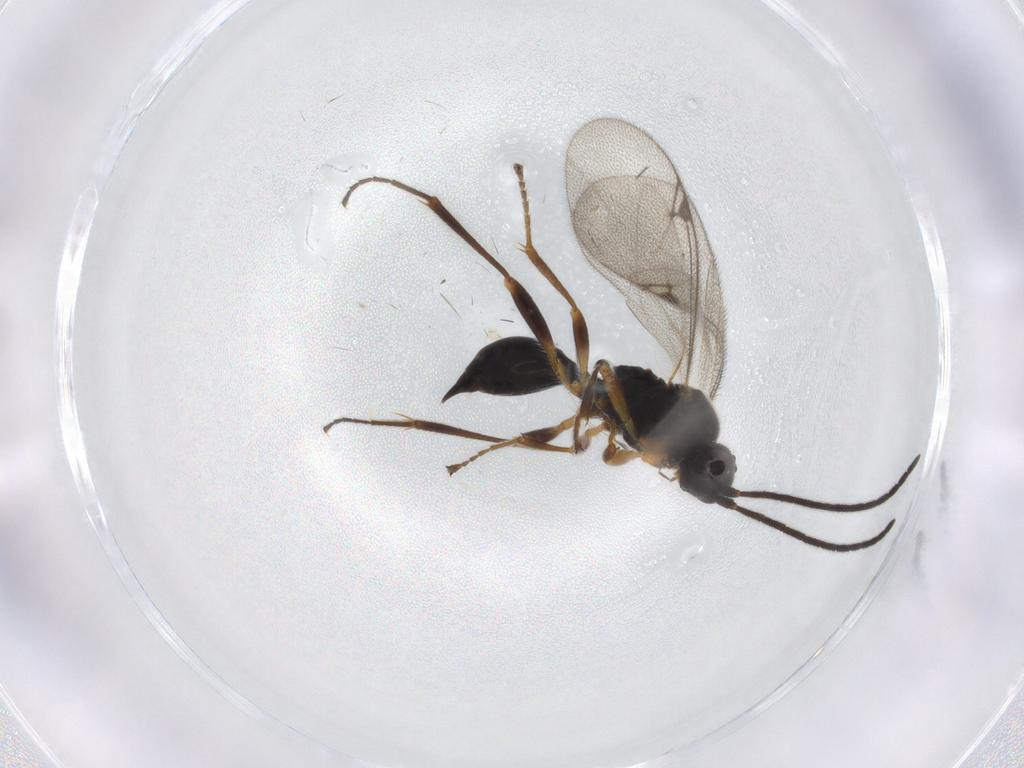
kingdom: Animalia
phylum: Arthropoda
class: Insecta
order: Hymenoptera
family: Proctotrupidae
